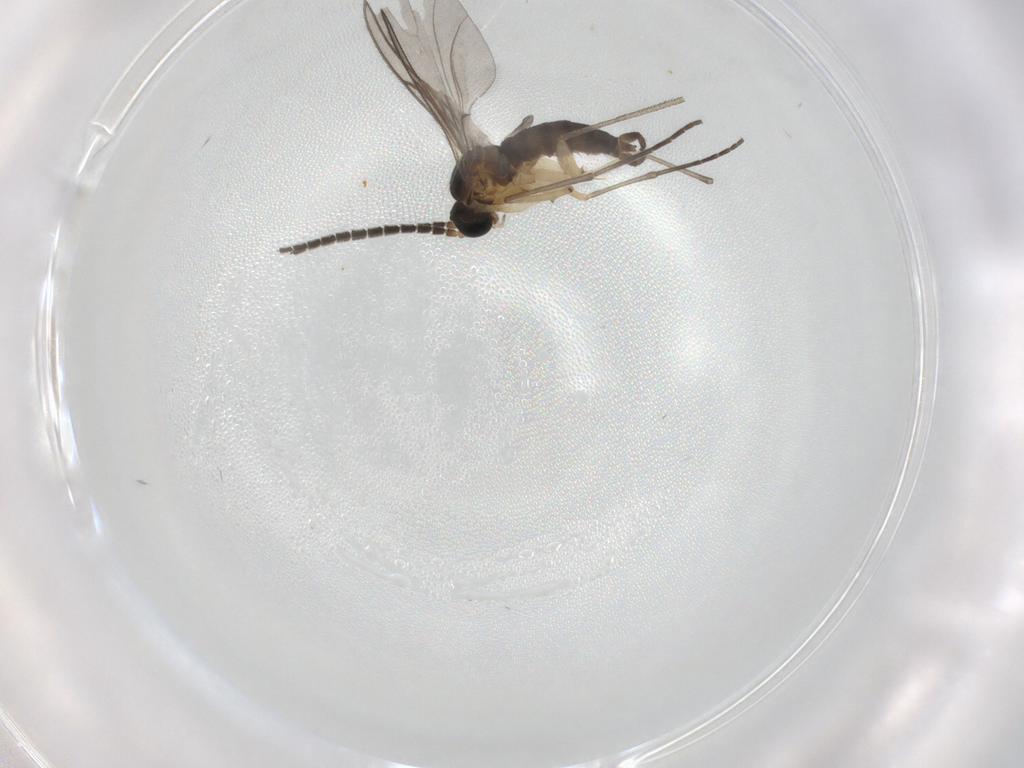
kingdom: Animalia
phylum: Arthropoda
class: Insecta
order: Diptera
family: Sciaridae
